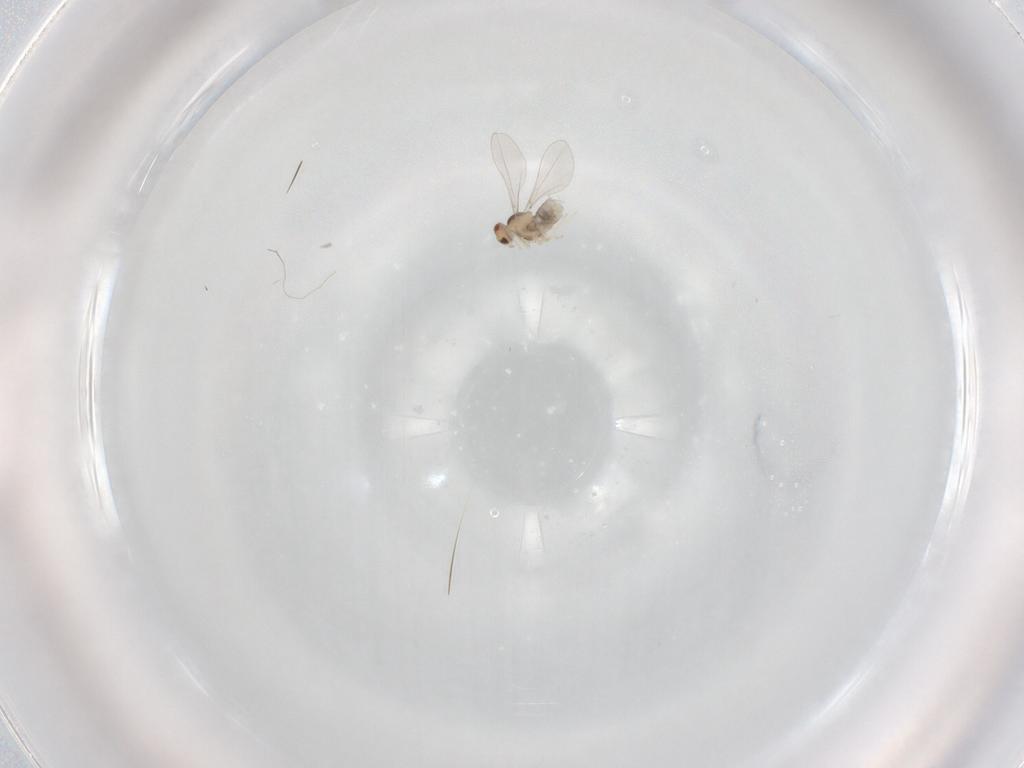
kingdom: Animalia
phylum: Arthropoda
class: Insecta
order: Diptera
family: Cecidomyiidae
